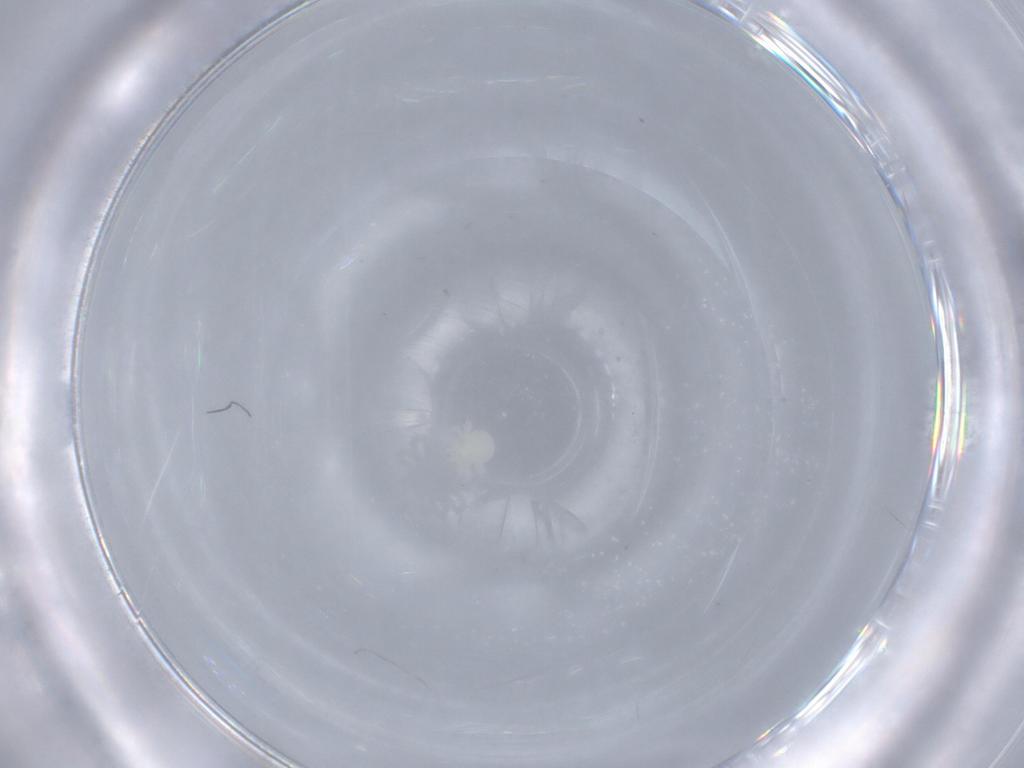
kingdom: Animalia
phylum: Arthropoda
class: Arachnida
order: Trombidiformes
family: Anystidae
